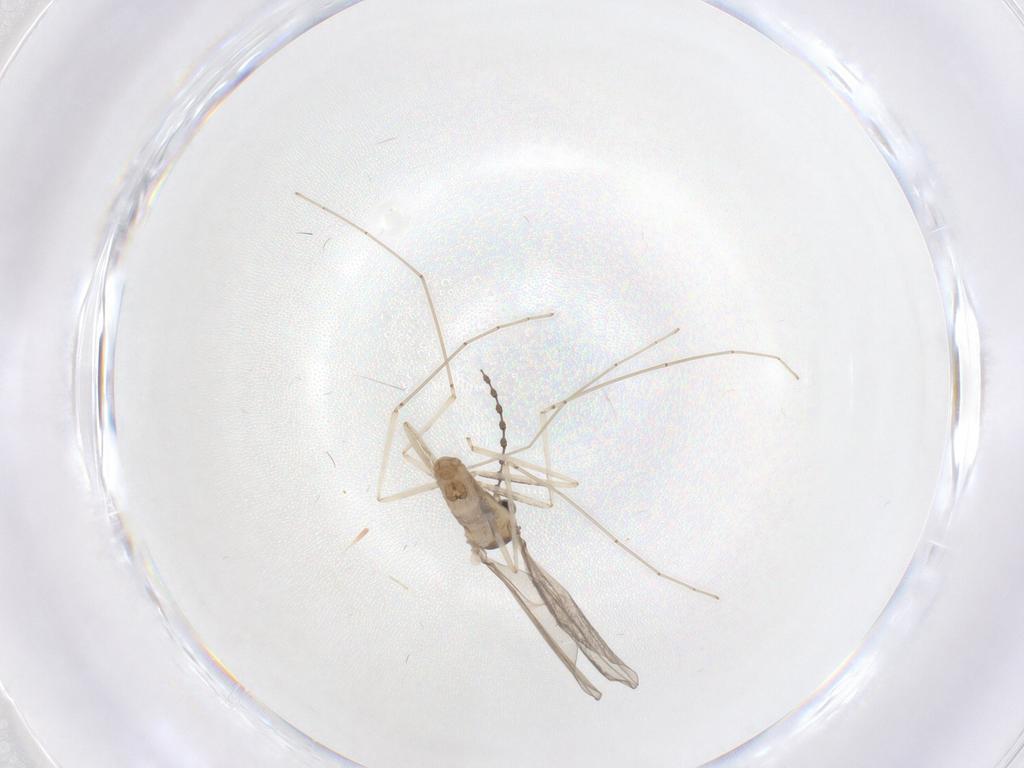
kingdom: Animalia
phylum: Arthropoda
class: Insecta
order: Diptera
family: Cecidomyiidae
